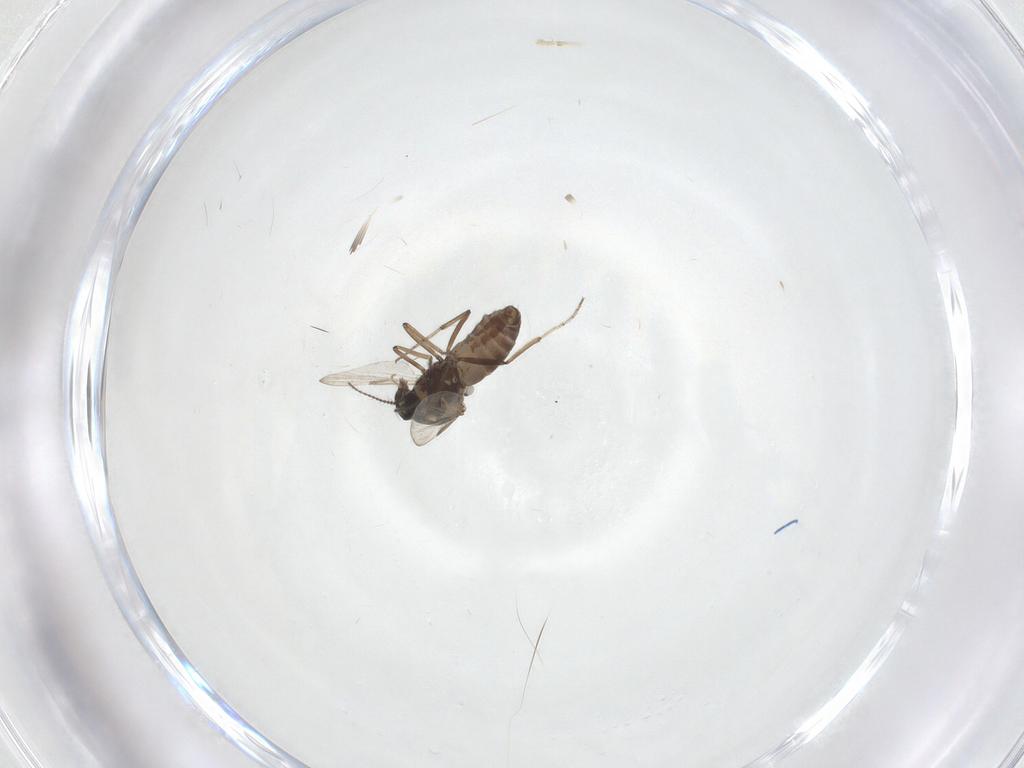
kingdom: Animalia
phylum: Arthropoda
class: Insecta
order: Diptera
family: Ceratopogonidae
